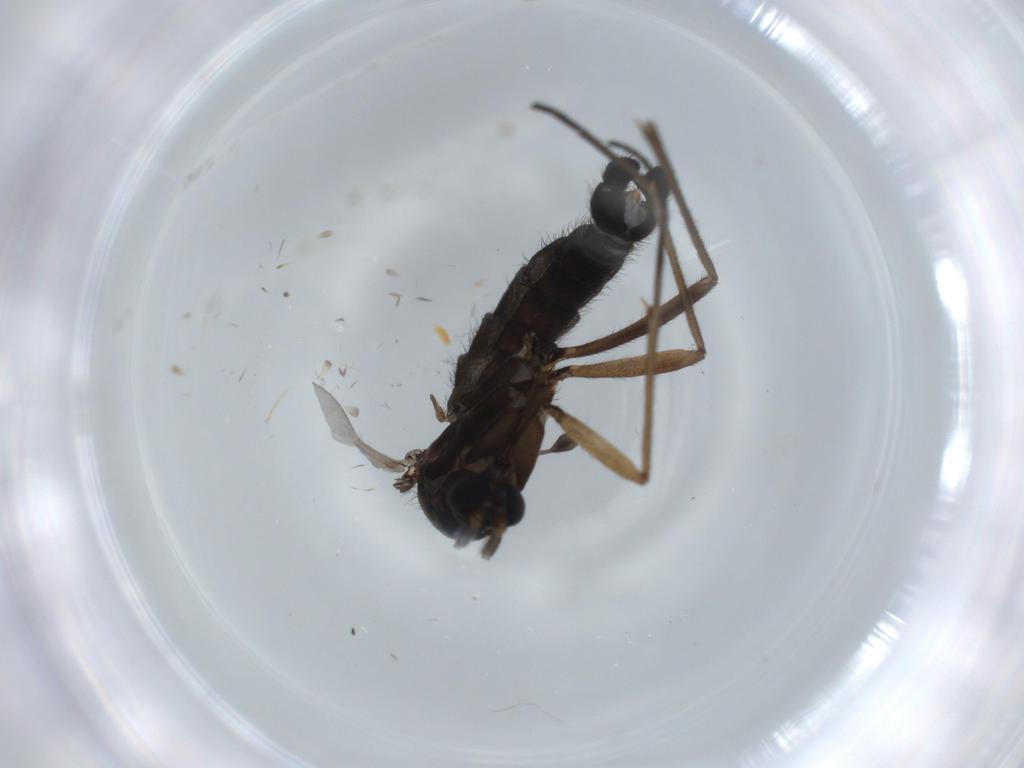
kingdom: Animalia
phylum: Arthropoda
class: Insecta
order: Diptera
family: Sciaridae
